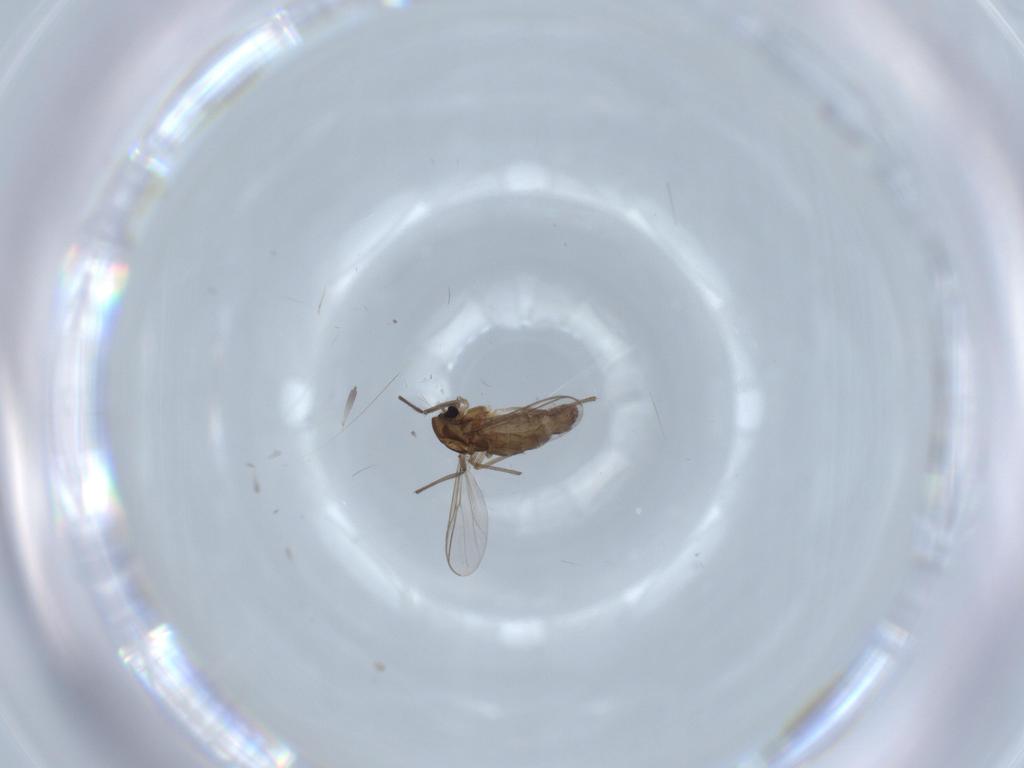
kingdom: Animalia
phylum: Arthropoda
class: Insecta
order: Diptera
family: Chironomidae
